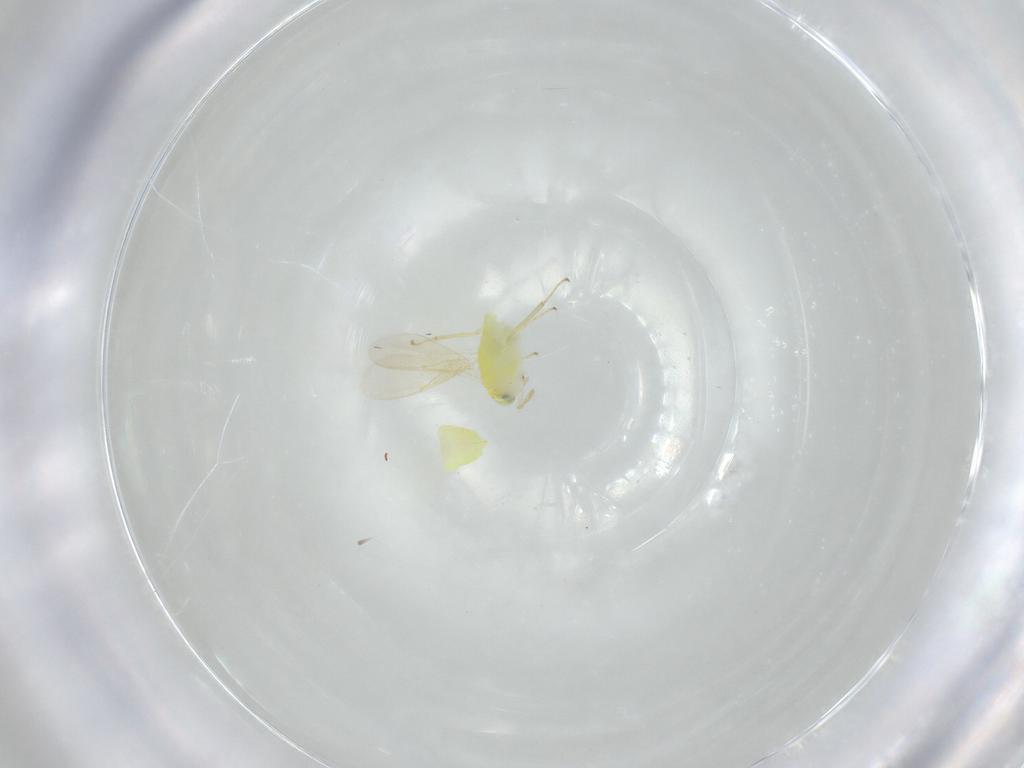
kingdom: Animalia
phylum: Arthropoda
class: Insecta
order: Hymenoptera
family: Aphelinidae
